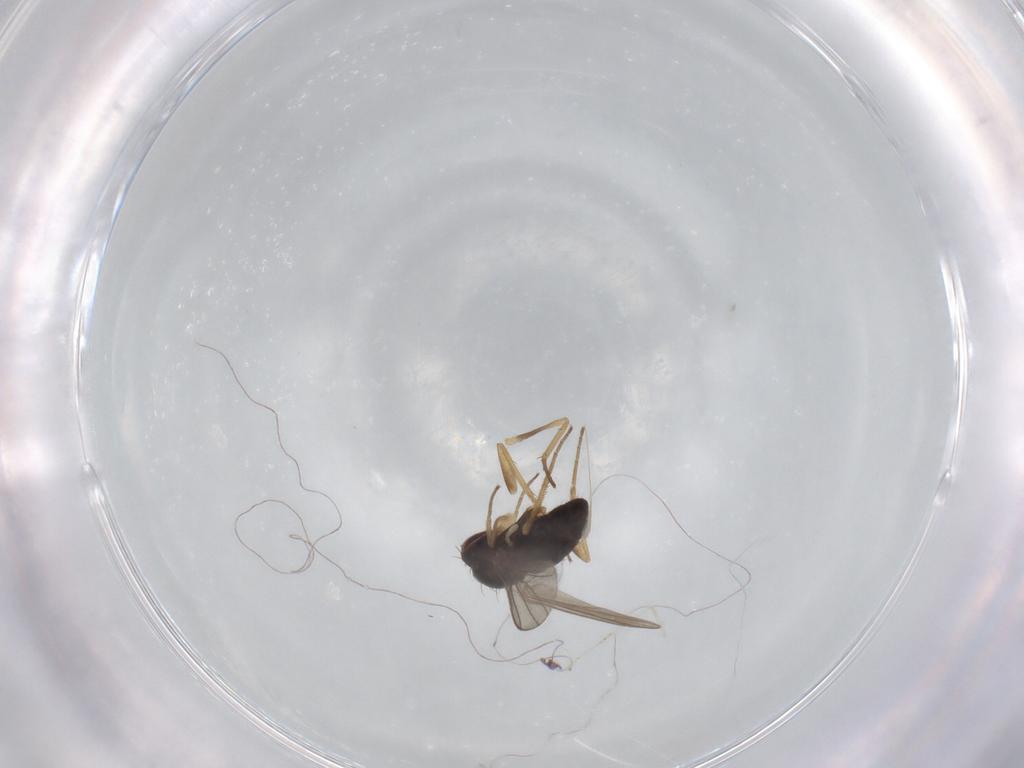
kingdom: Animalia
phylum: Arthropoda
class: Insecta
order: Diptera
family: Dolichopodidae
